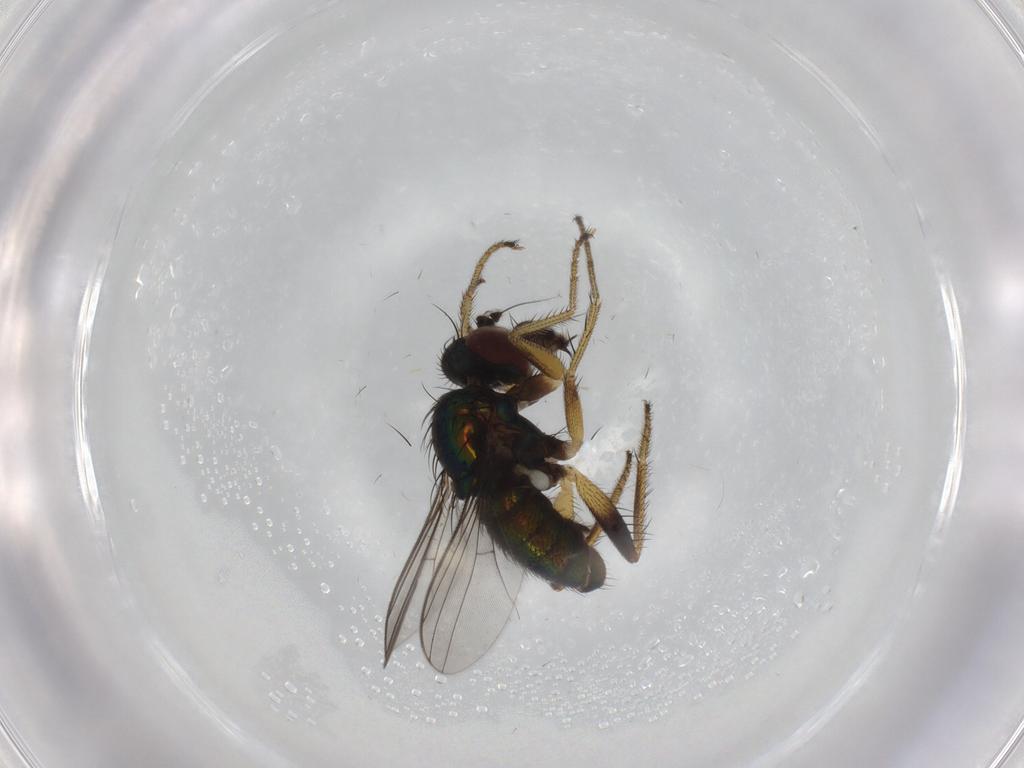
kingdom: Animalia
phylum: Arthropoda
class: Insecta
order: Diptera
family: Dolichopodidae
